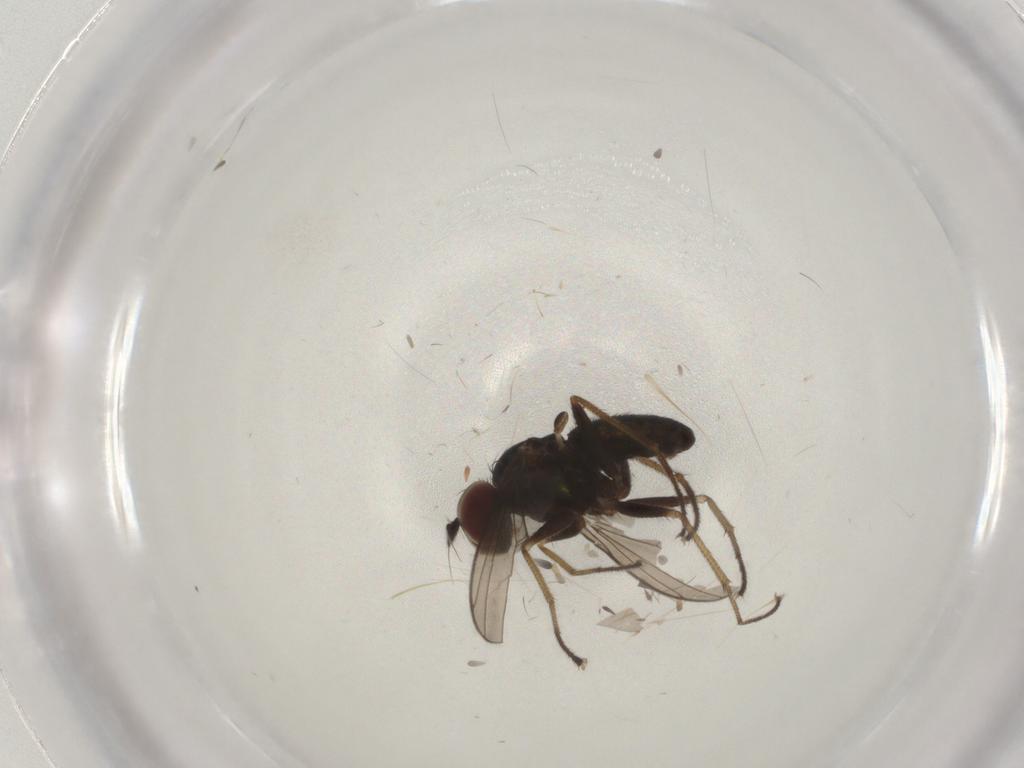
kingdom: Animalia
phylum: Arthropoda
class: Insecta
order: Diptera
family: Dolichopodidae
